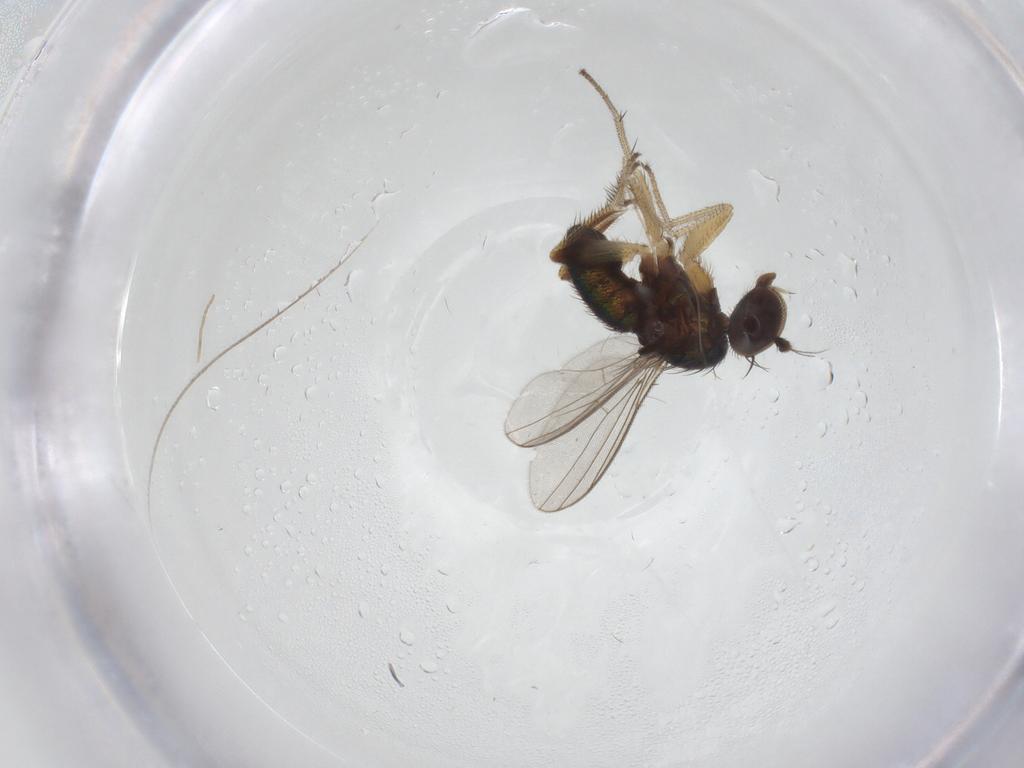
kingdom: Animalia
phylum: Arthropoda
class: Insecta
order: Diptera
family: Dolichopodidae
